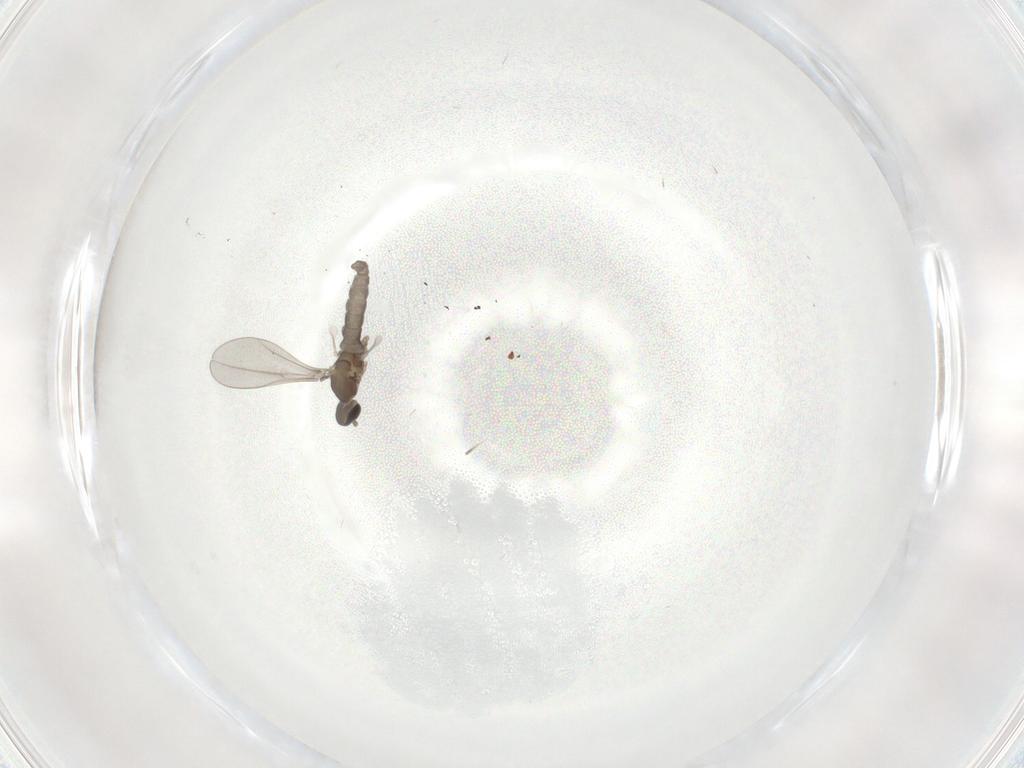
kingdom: Animalia
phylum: Arthropoda
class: Insecta
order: Diptera
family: Cecidomyiidae
